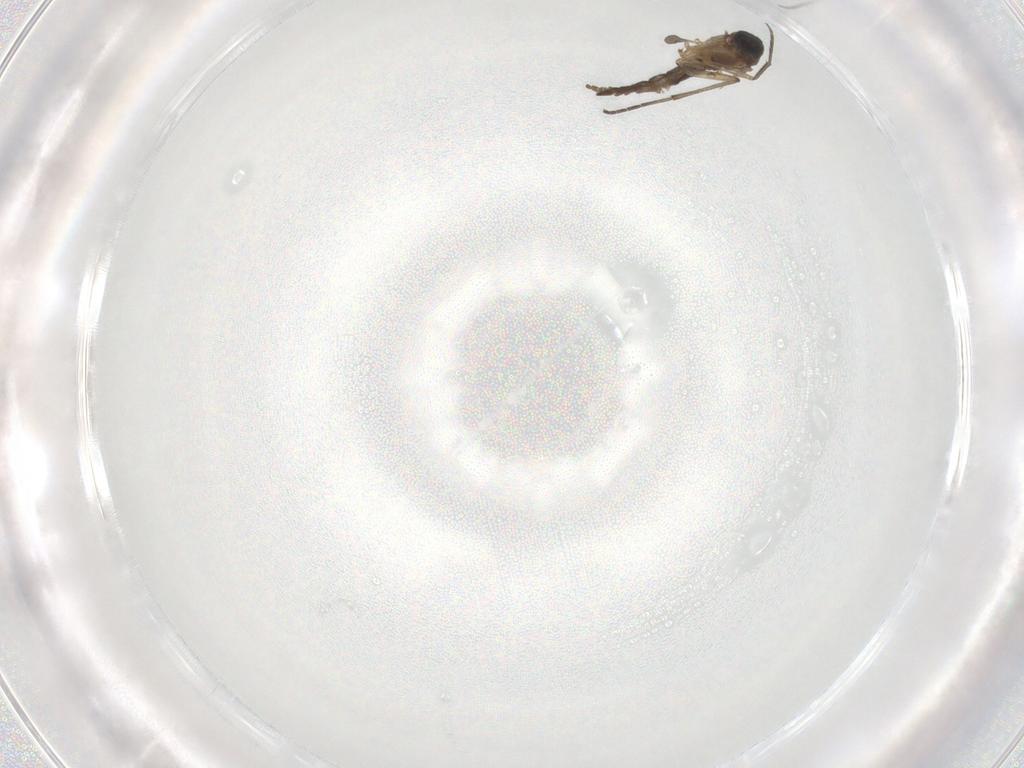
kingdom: Animalia
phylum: Arthropoda
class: Insecta
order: Diptera
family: Sciaridae
